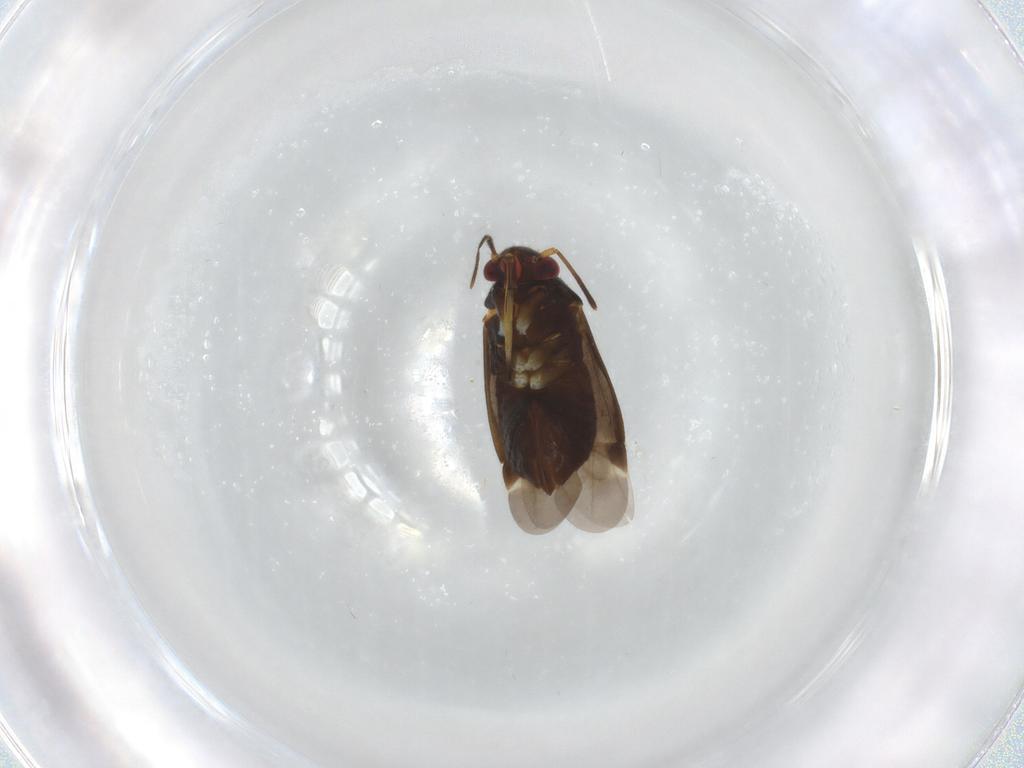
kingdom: Animalia
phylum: Arthropoda
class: Insecta
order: Hemiptera
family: Miridae
